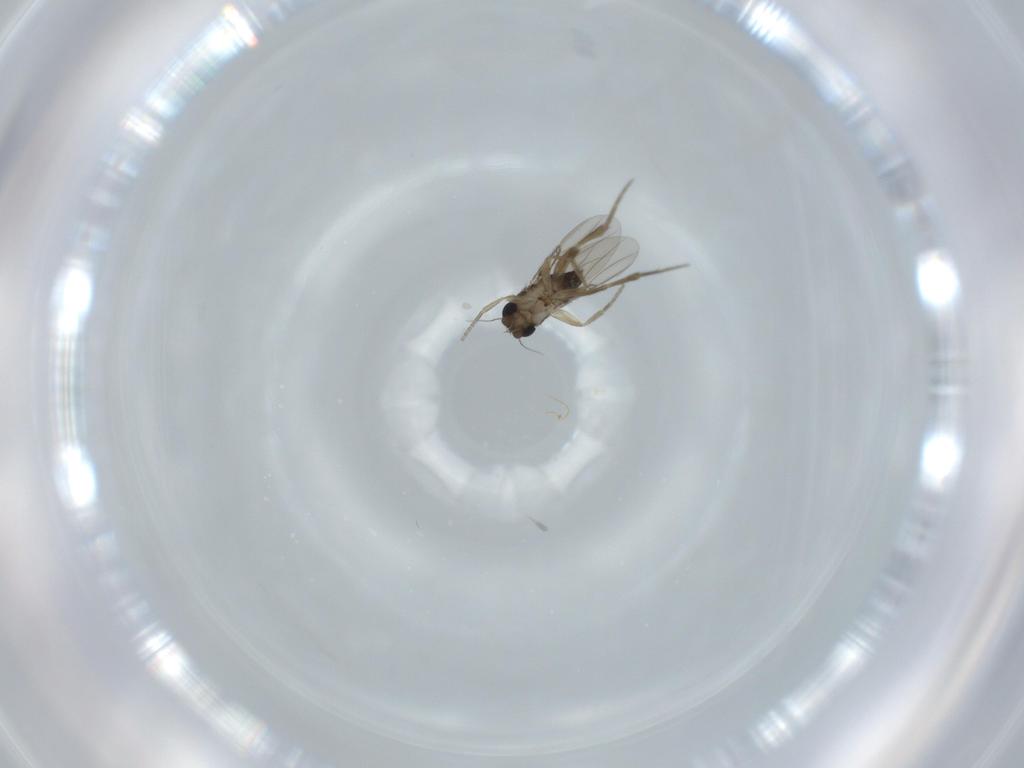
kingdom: Animalia
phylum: Arthropoda
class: Insecta
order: Diptera
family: Phoridae
